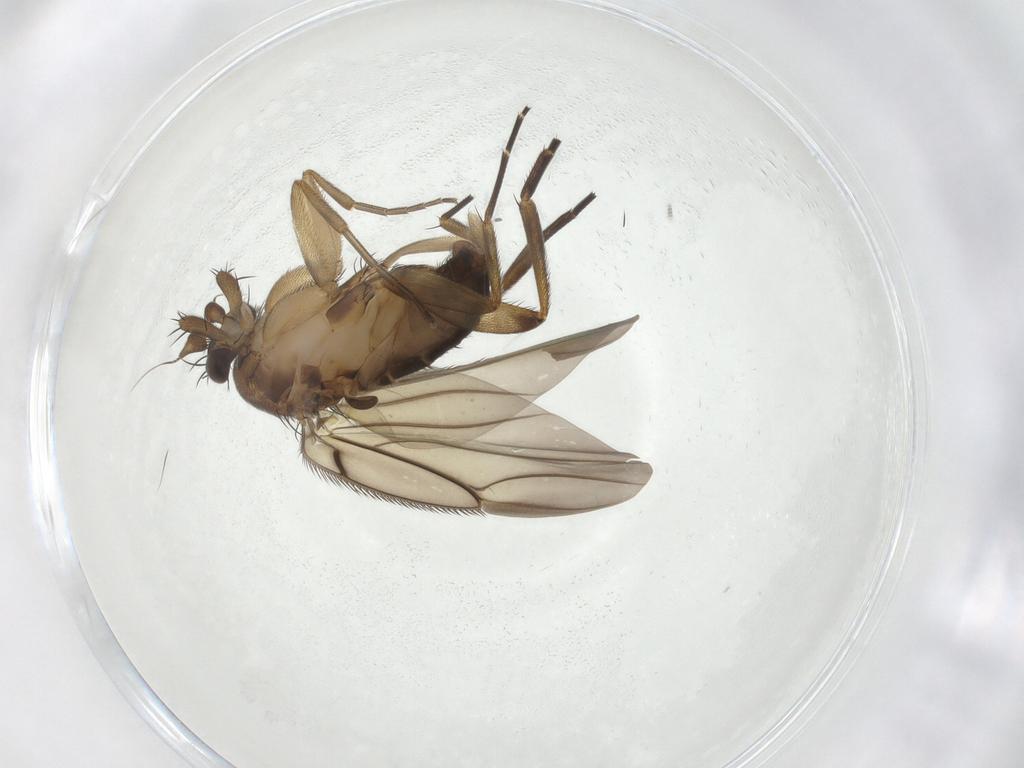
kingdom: Animalia
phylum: Arthropoda
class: Insecta
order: Diptera
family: Phoridae
